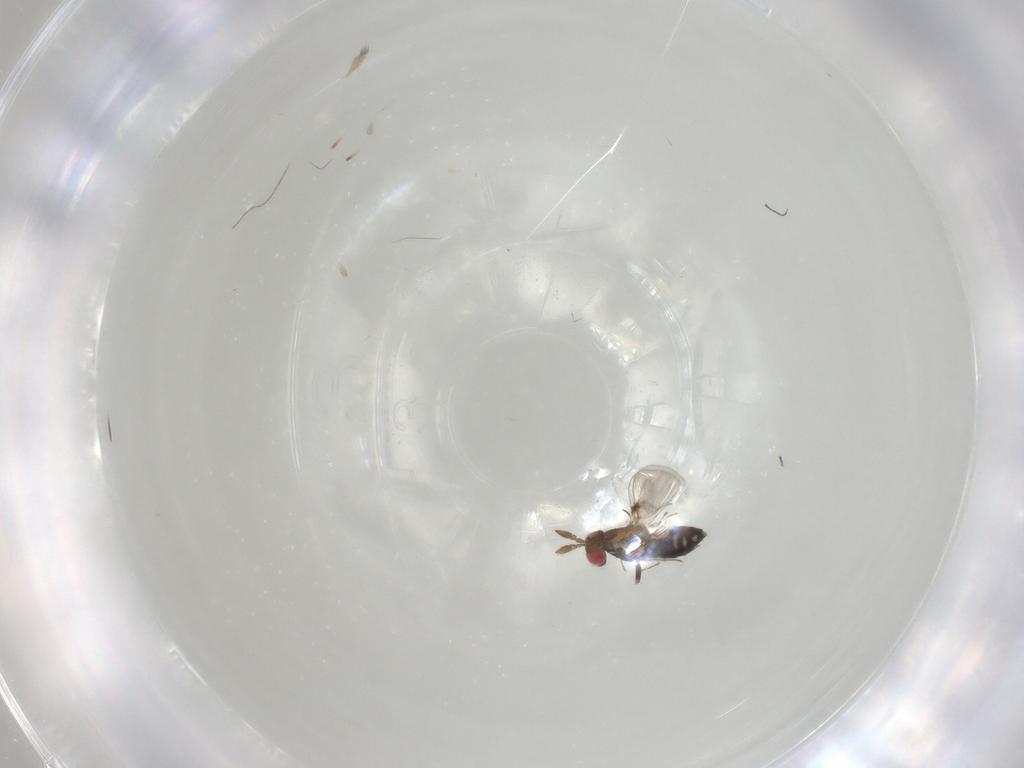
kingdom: Animalia
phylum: Arthropoda
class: Insecta
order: Hymenoptera
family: Trichogrammatidae
